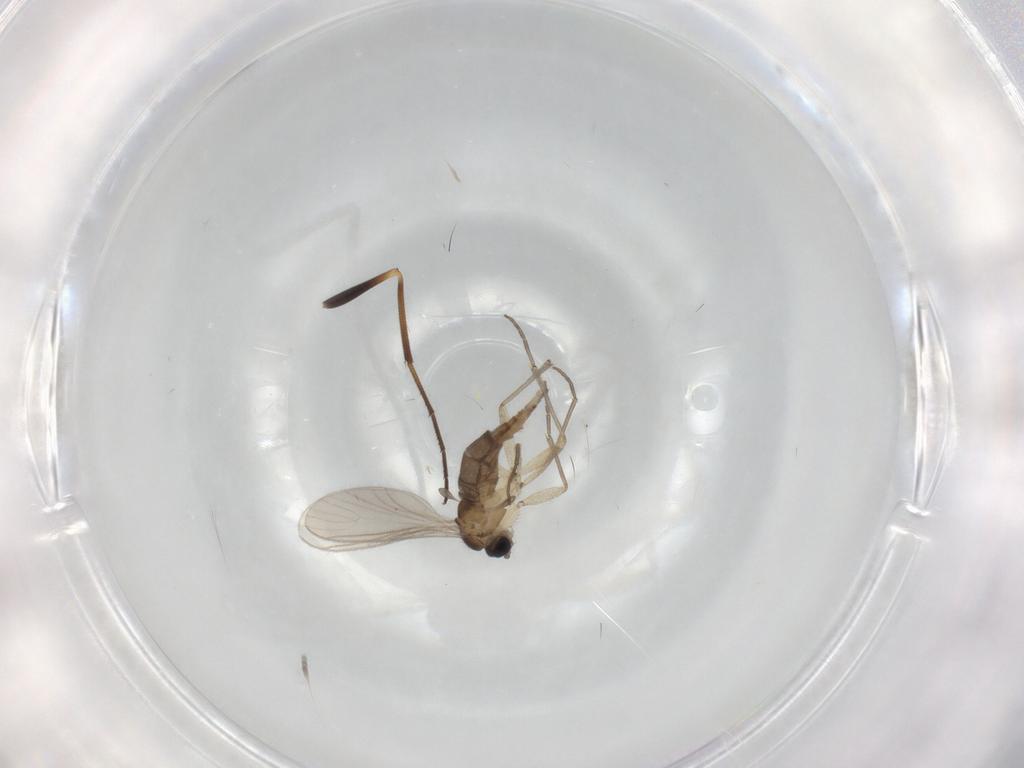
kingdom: Animalia
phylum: Arthropoda
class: Insecta
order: Diptera
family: Sciaridae
